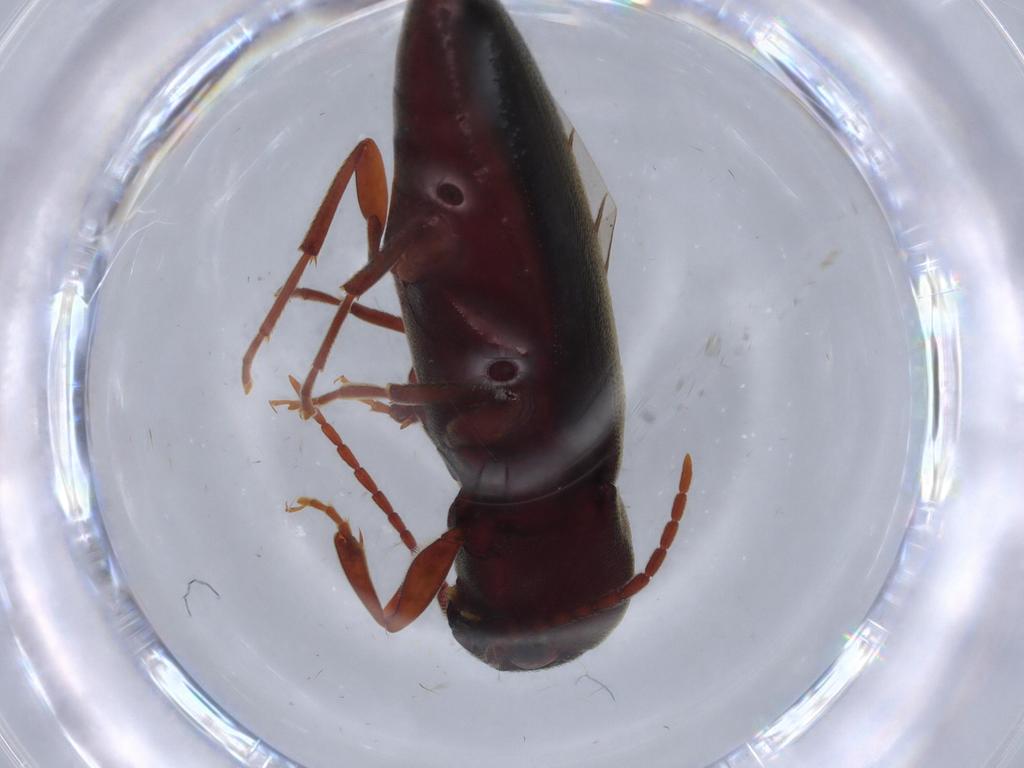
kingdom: Animalia
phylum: Arthropoda
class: Insecta
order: Coleoptera
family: Eucnemidae
